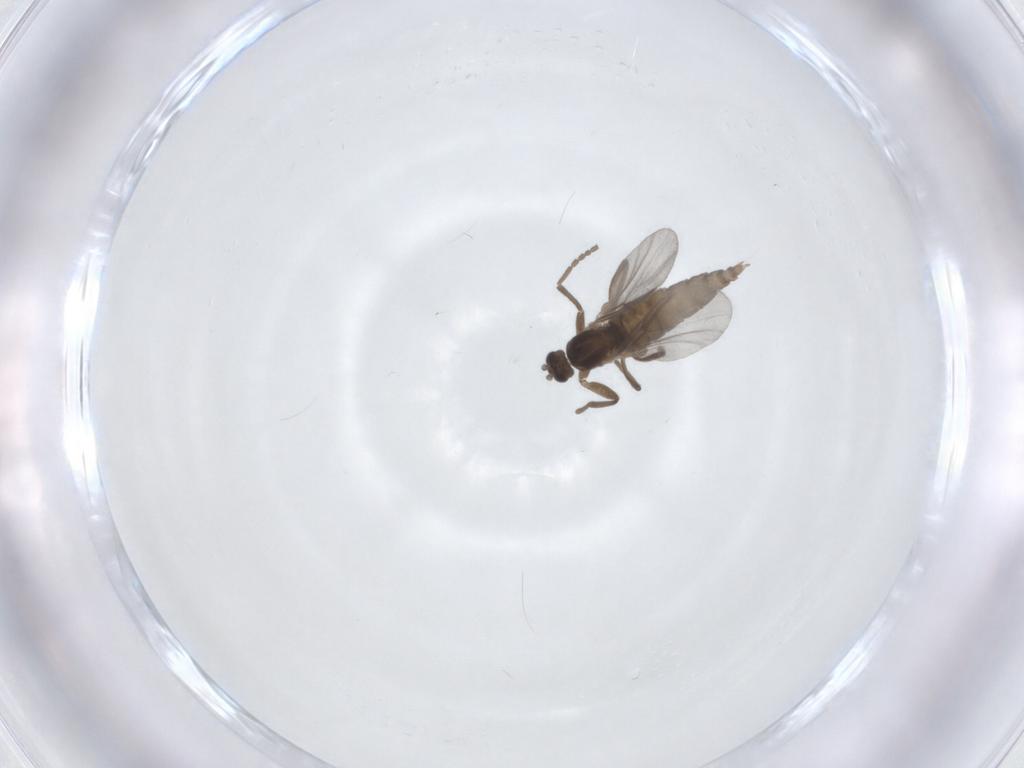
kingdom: Animalia
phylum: Arthropoda
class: Insecta
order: Diptera
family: Cecidomyiidae
